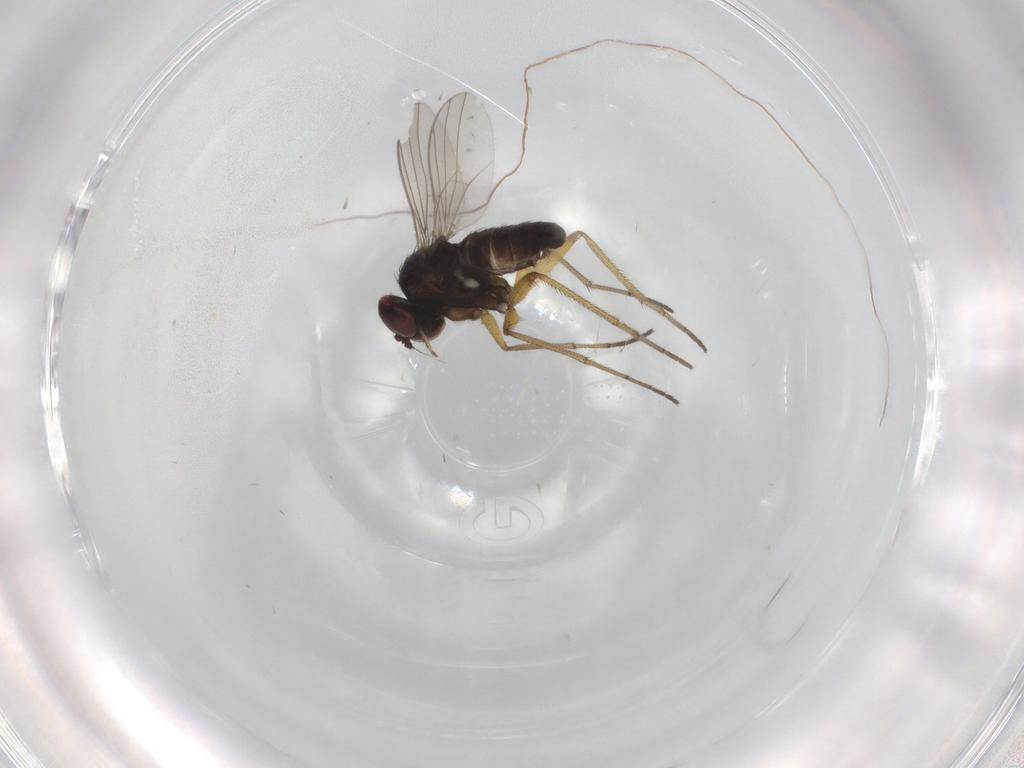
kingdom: Animalia
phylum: Arthropoda
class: Insecta
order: Diptera
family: Dolichopodidae
